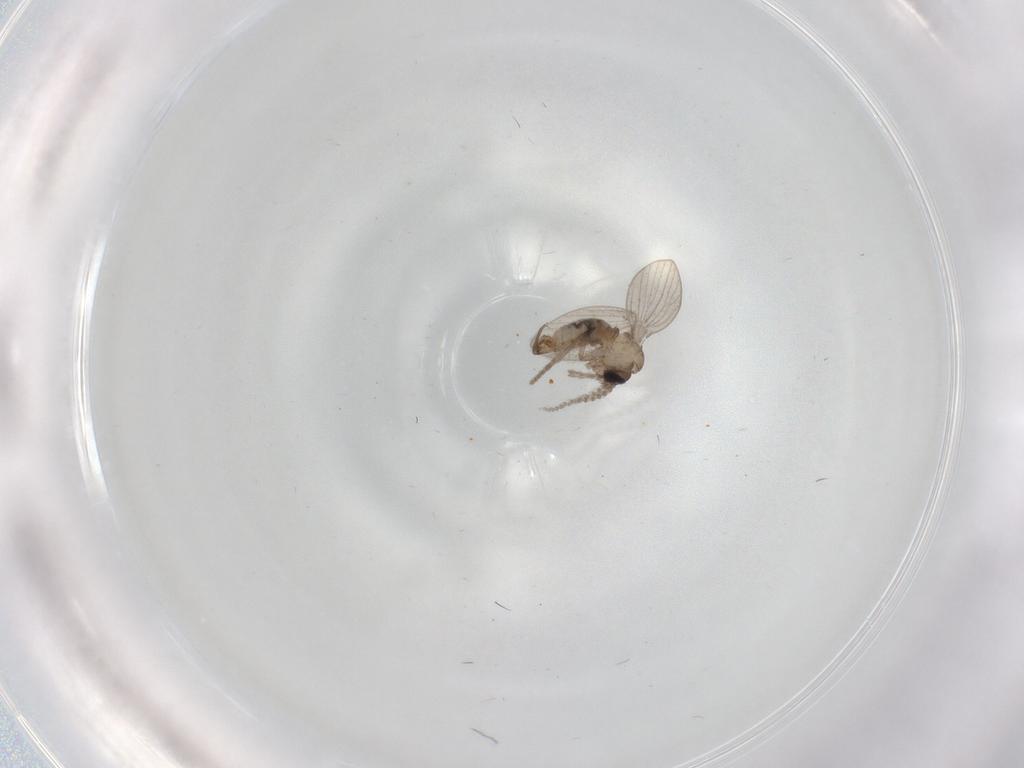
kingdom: Animalia
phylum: Arthropoda
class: Insecta
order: Diptera
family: Psychodidae
